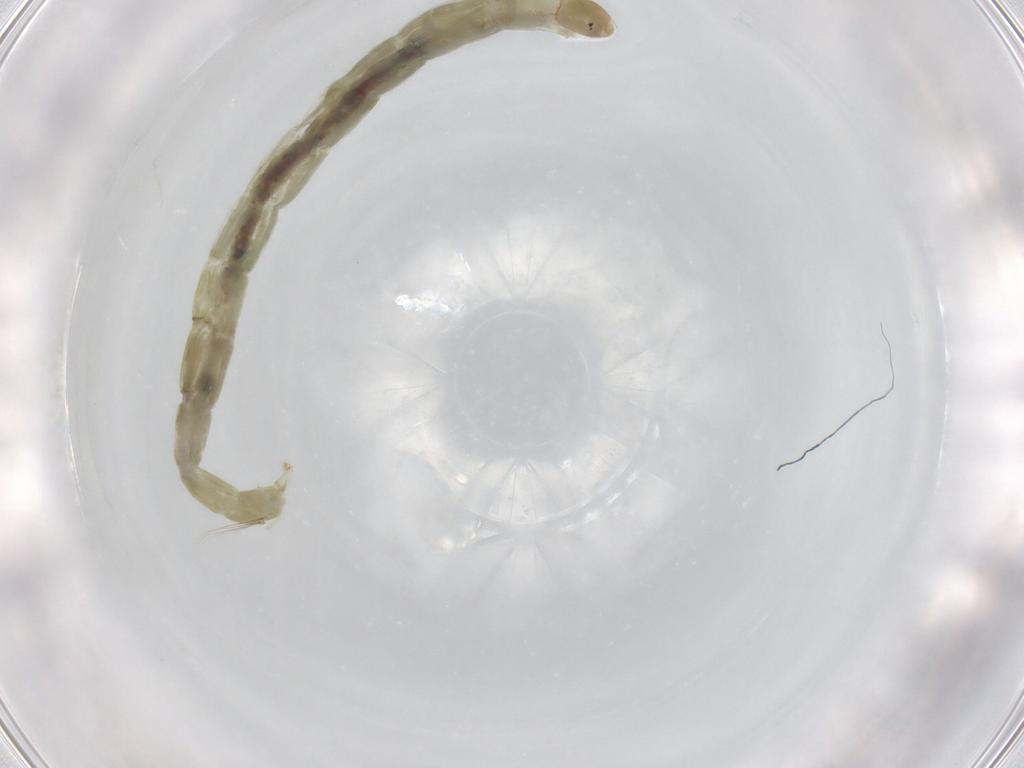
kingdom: Animalia
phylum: Arthropoda
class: Insecta
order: Diptera
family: Chironomidae
